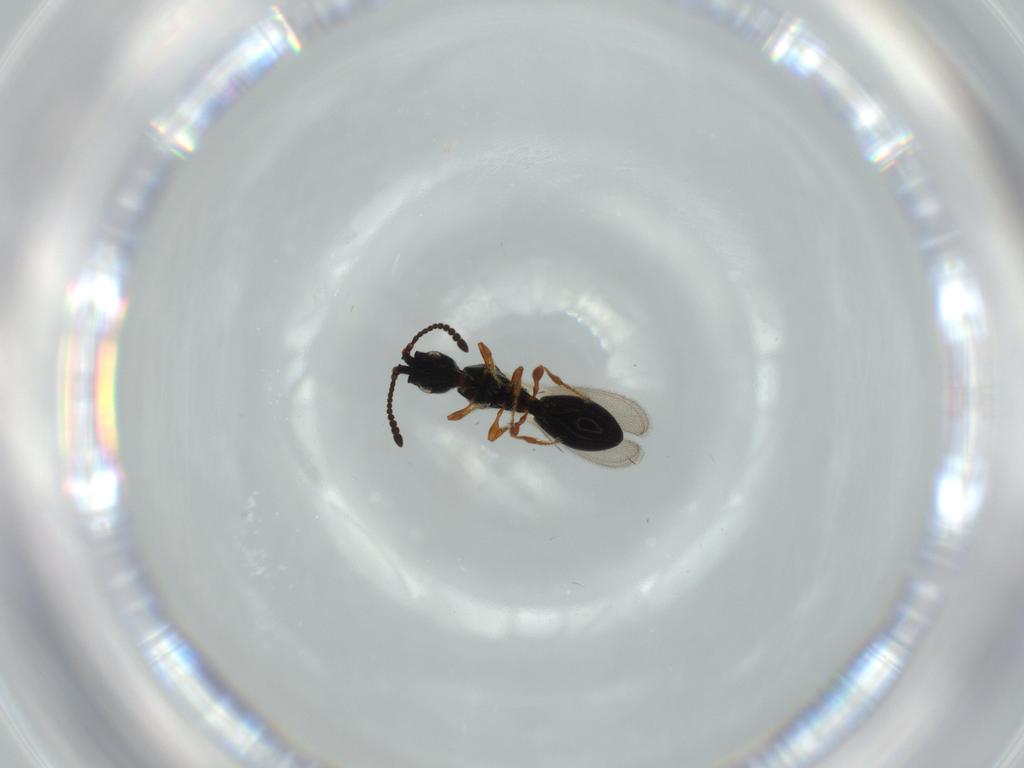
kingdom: Animalia
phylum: Arthropoda
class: Insecta
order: Hymenoptera
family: Diapriidae
